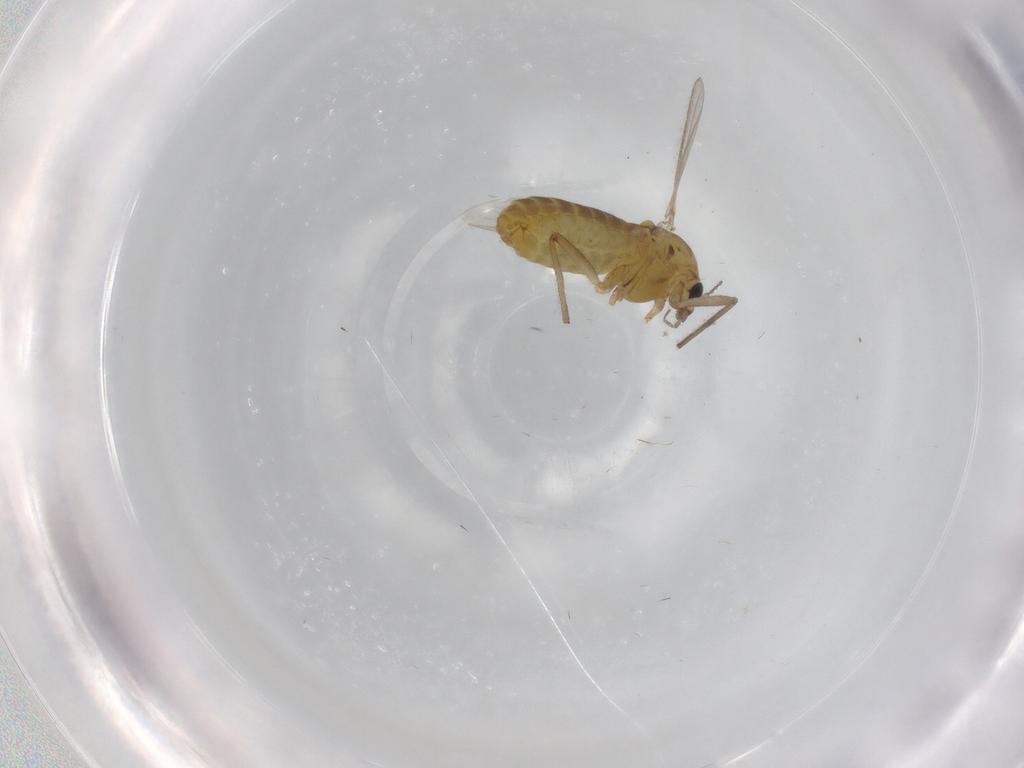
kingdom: Animalia
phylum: Arthropoda
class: Insecta
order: Diptera
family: Chironomidae
